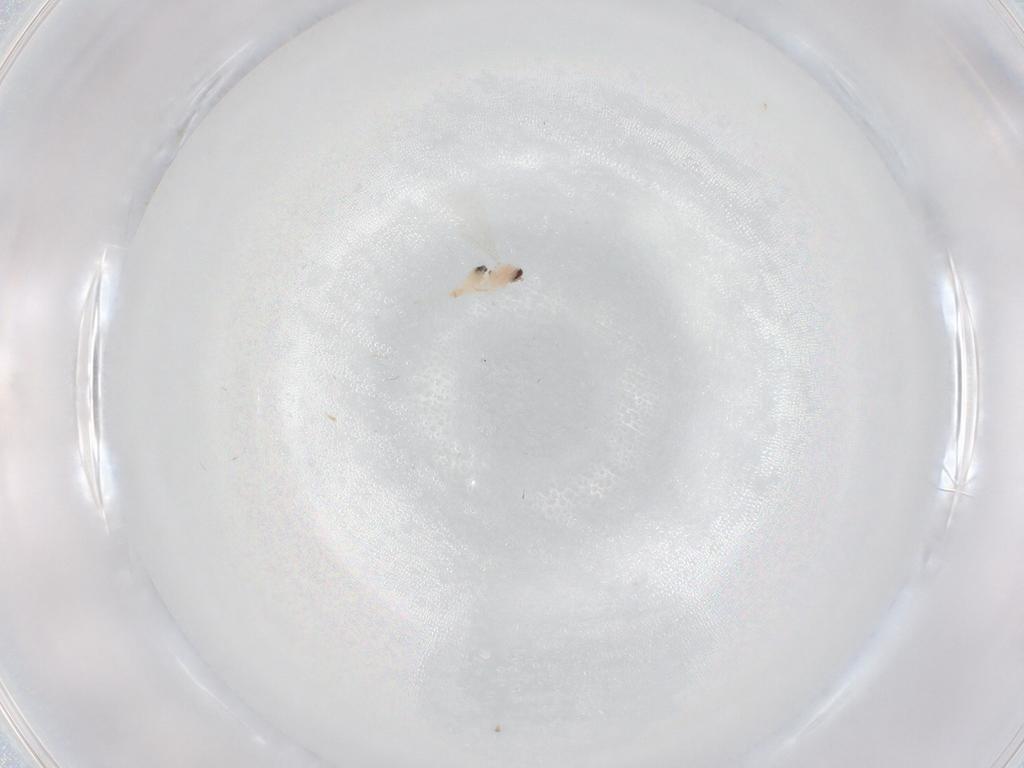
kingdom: Animalia
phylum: Arthropoda
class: Insecta
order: Diptera
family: Cecidomyiidae
